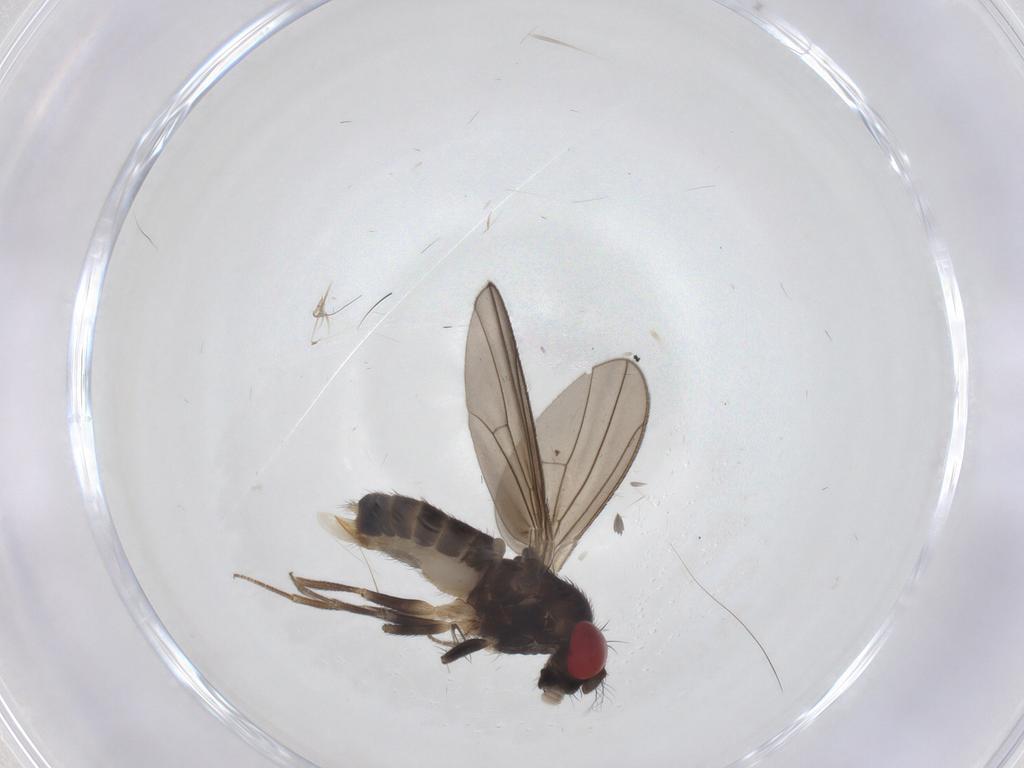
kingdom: Animalia
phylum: Arthropoda
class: Insecta
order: Diptera
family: Drosophilidae
